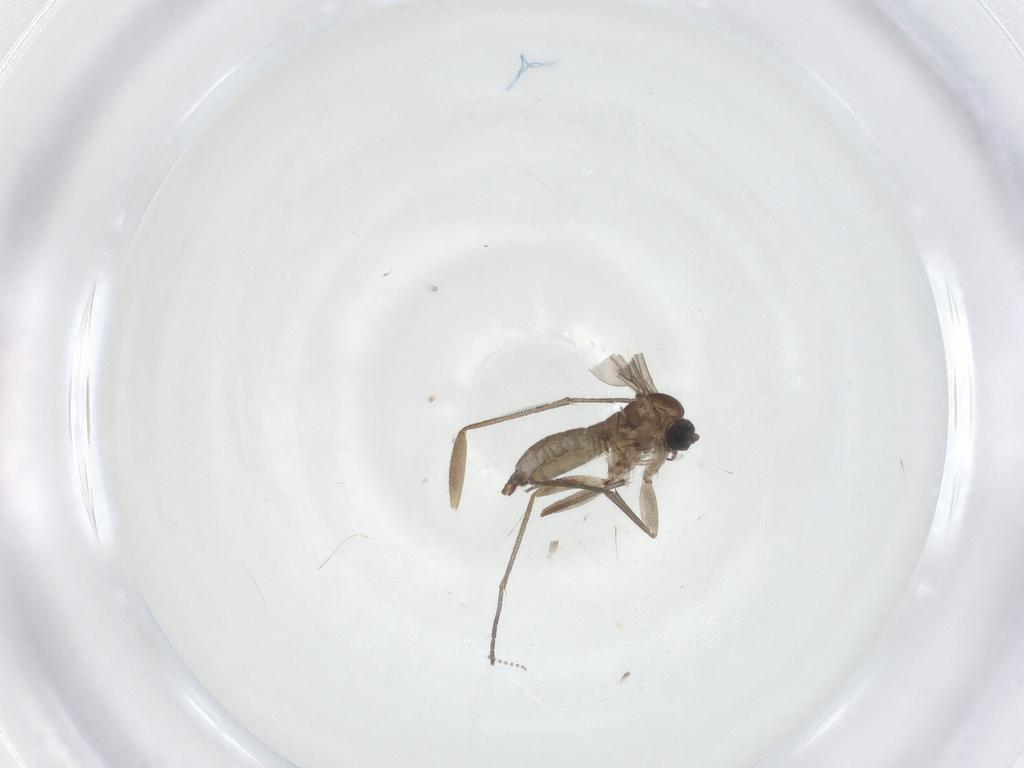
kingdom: Animalia
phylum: Arthropoda
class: Insecta
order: Diptera
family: Sciaridae
